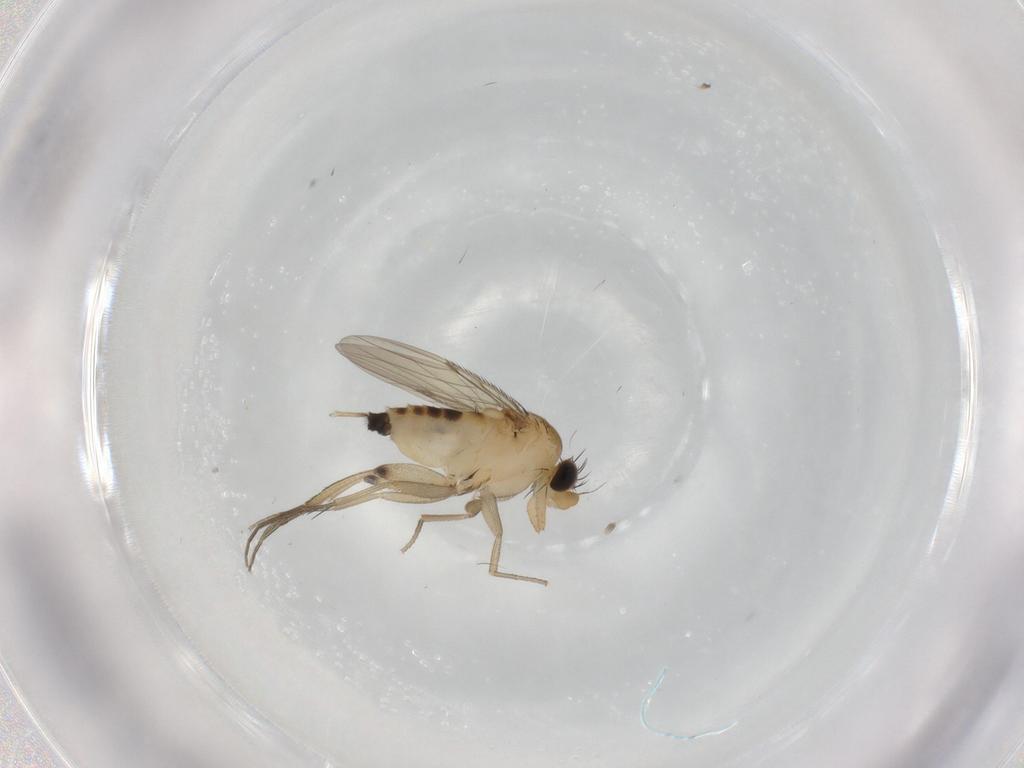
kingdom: Animalia
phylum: Arthropoda
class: Insecta
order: Diptera
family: Phoridae
